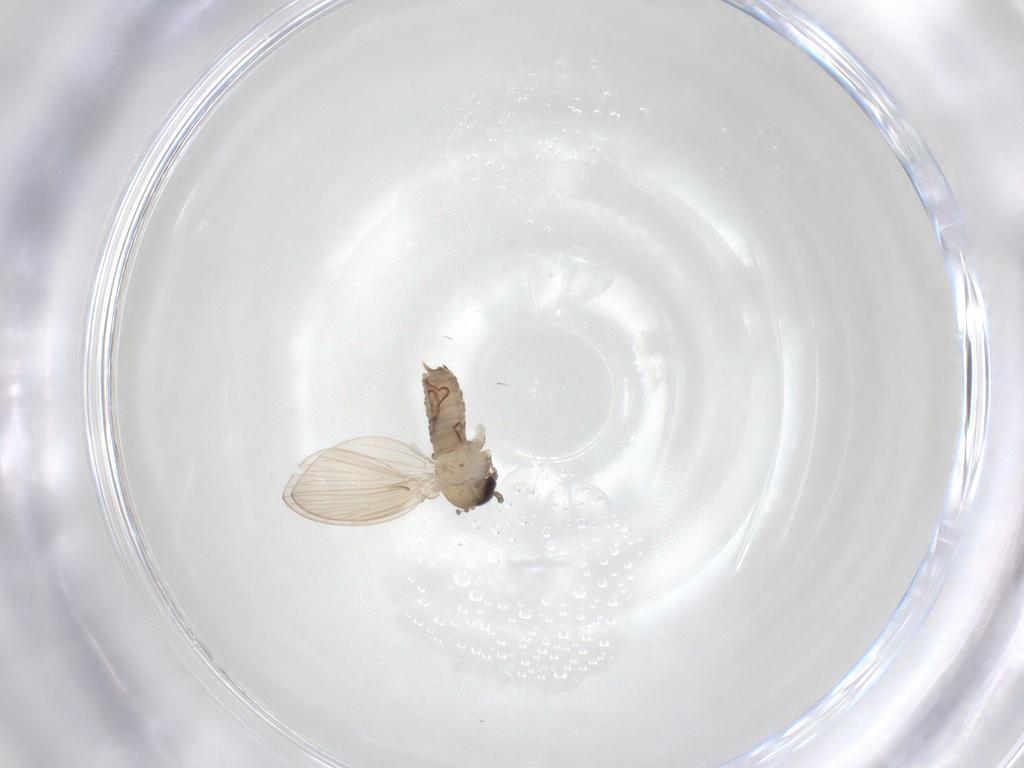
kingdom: Animalia
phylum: Arthropoda
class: Insecta
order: Diptera
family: Psychodidae
